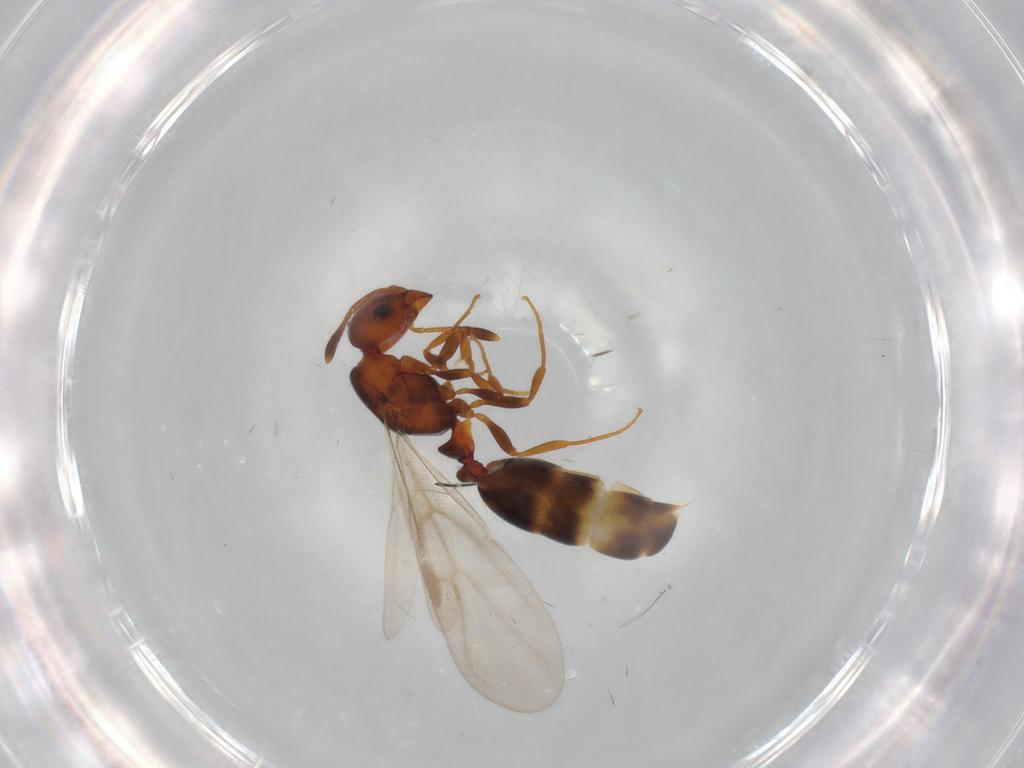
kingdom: Animalia
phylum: Arthropoda
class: Insecta
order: Hymenoptera
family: Formicidae
